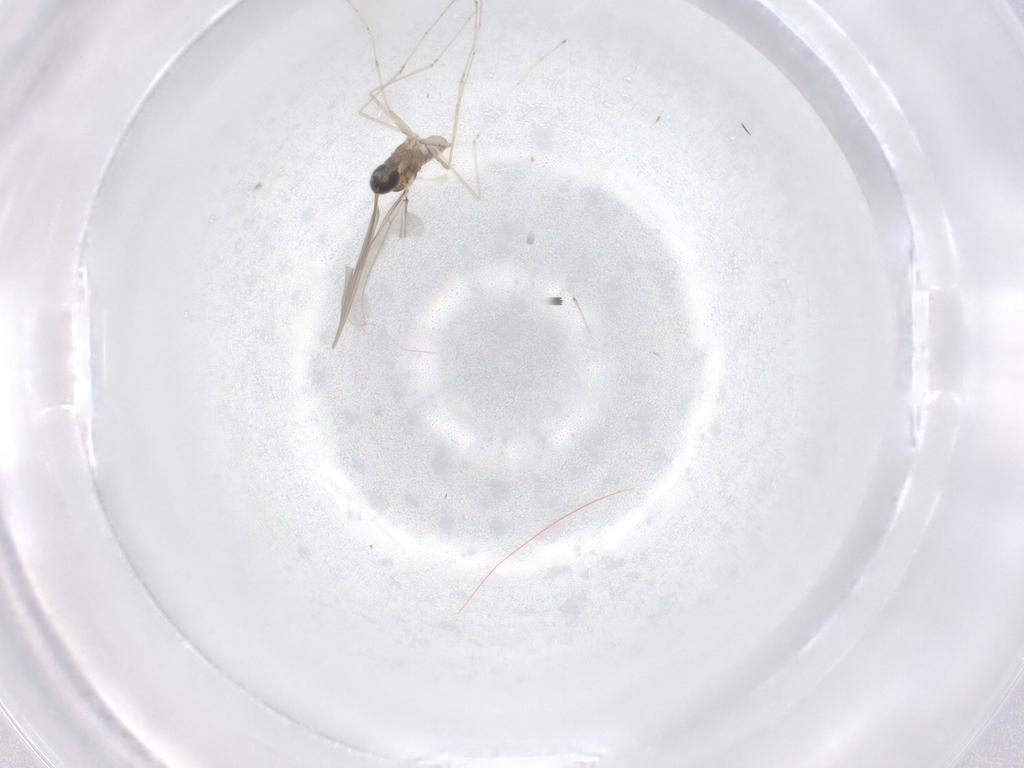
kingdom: Animalia
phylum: Arthropoda
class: Insecta
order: Diptera
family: Cecidomyiidae
